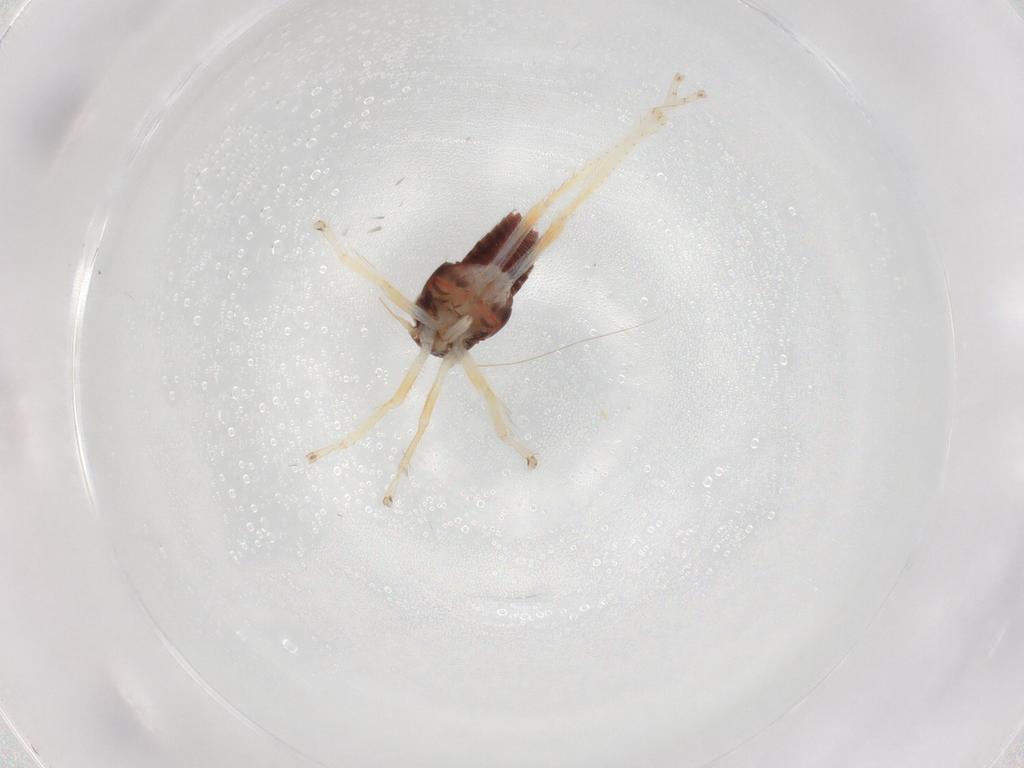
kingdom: Animalia
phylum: Arthropoda
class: Insecta
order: Hemiptera
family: Cicadellidae
